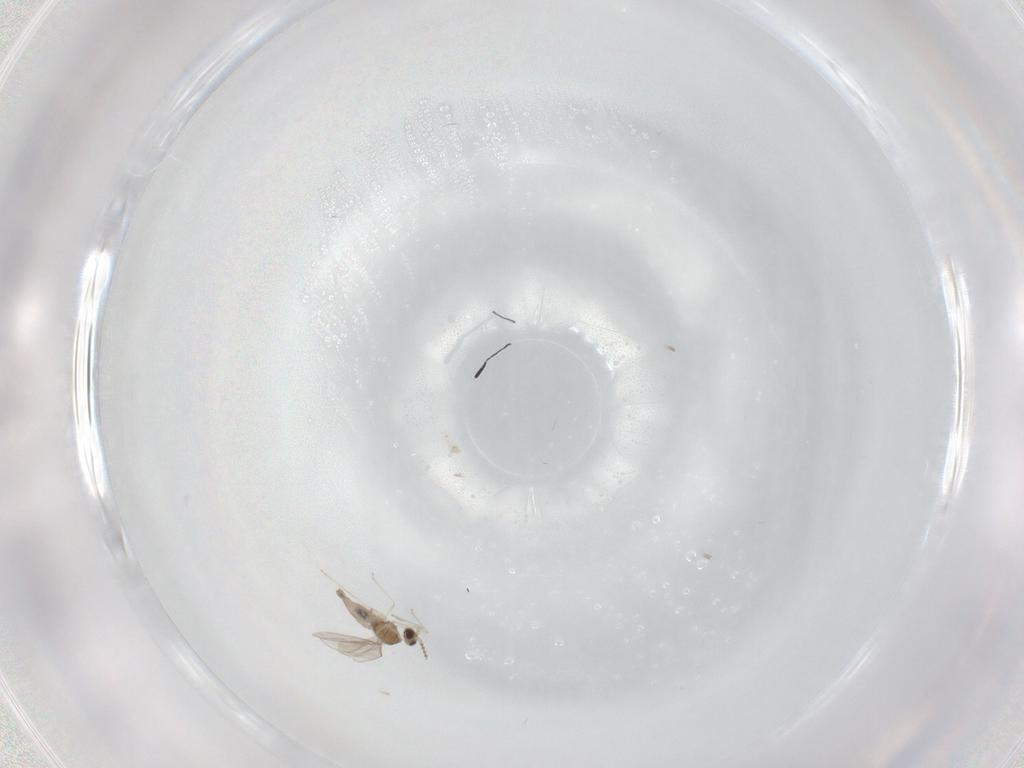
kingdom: Animalia
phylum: Arthropoda
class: Insecta
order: Diptera
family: Cecidomyiidae
